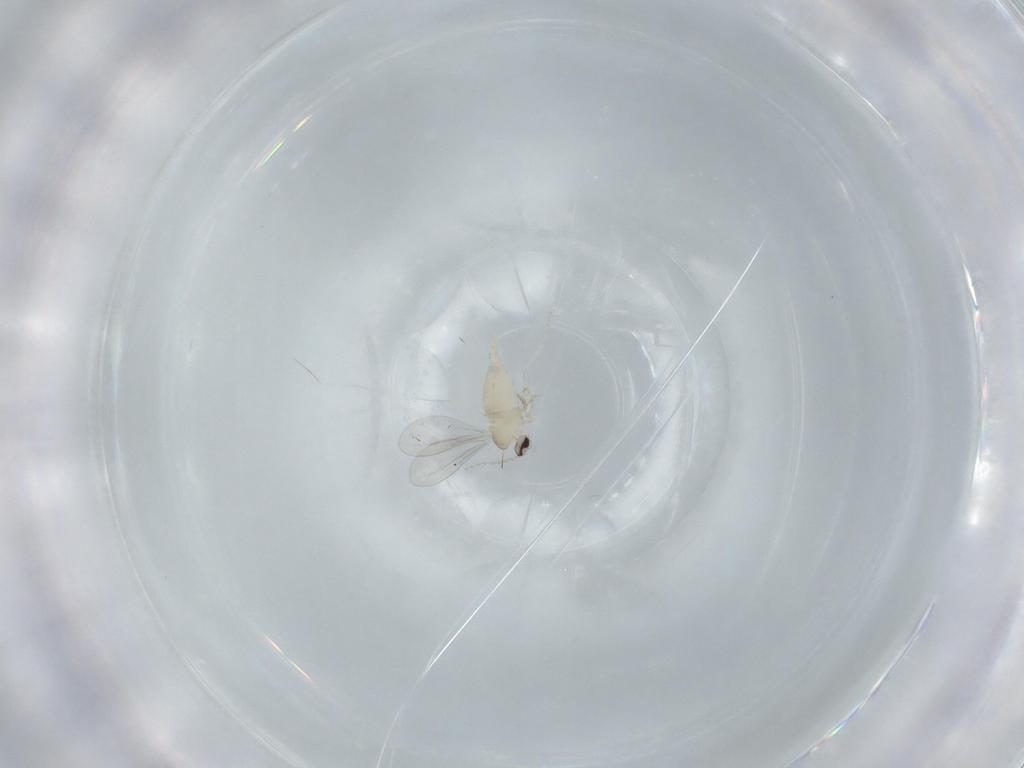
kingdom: Animalia
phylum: Arthropoda
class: Insecta
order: Diptera
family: Cecidomyiidae
